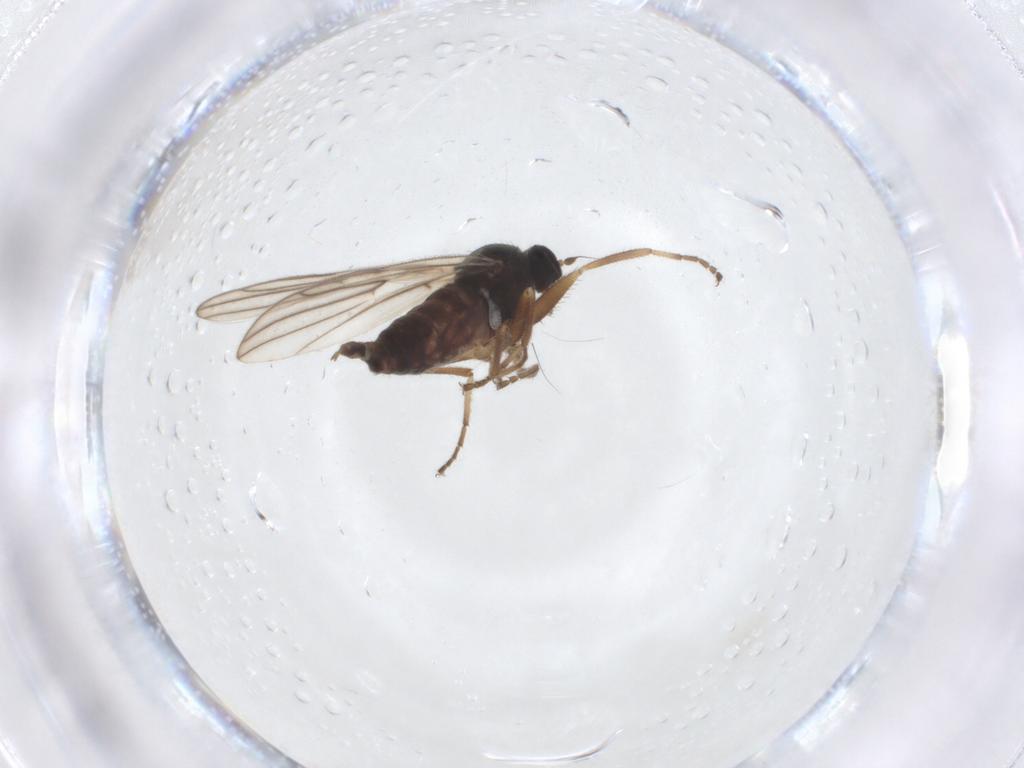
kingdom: Animalia
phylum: Arthropoda
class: Insecta
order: Diptera
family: Hybotidae
